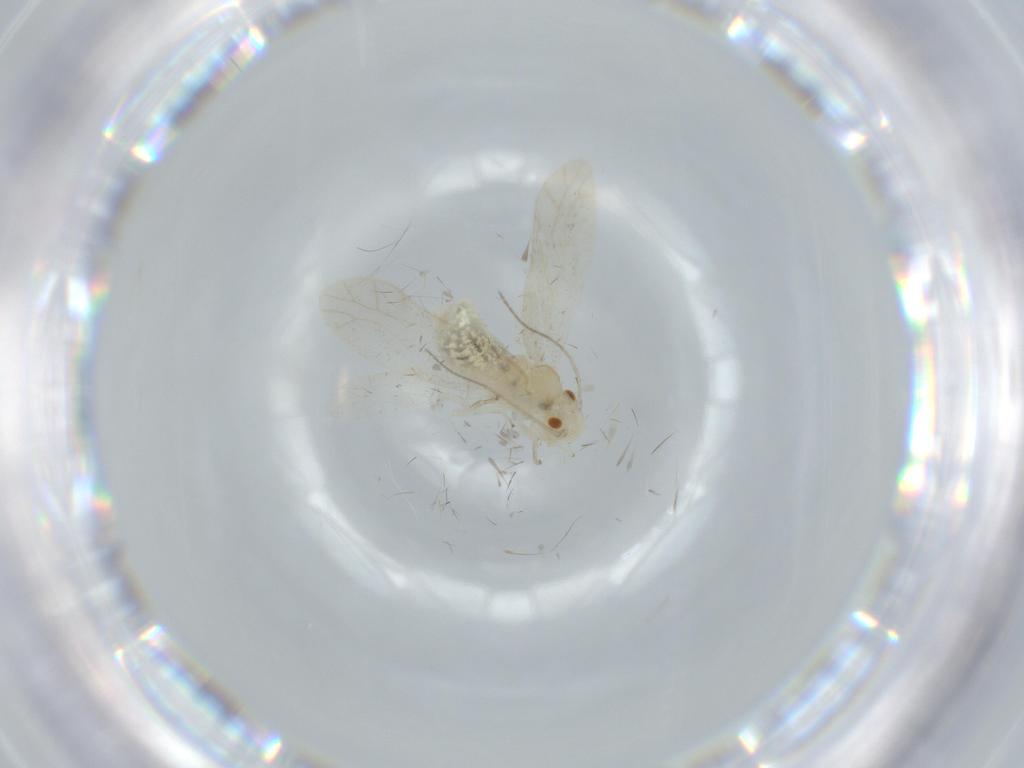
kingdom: Animalia
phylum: Arthropoda
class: Insecta
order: Psocodea
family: Caeciliusidae
